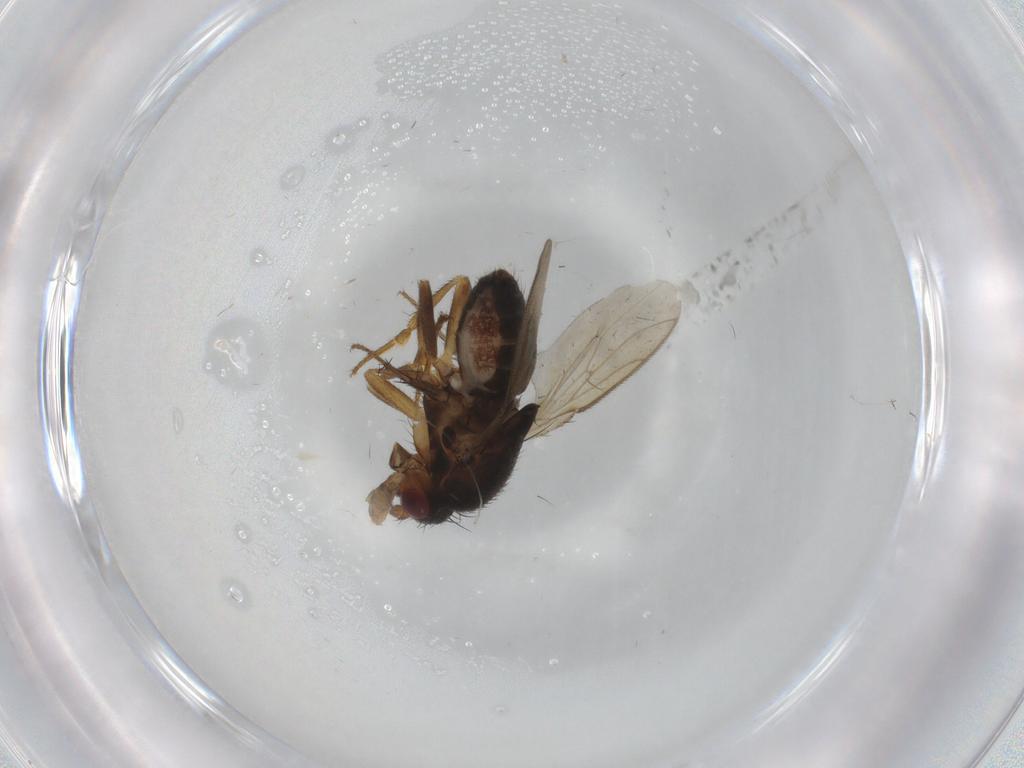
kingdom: Animalia
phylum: Arthropoda
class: Insecta
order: Diptera
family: Sphaeroceridae
